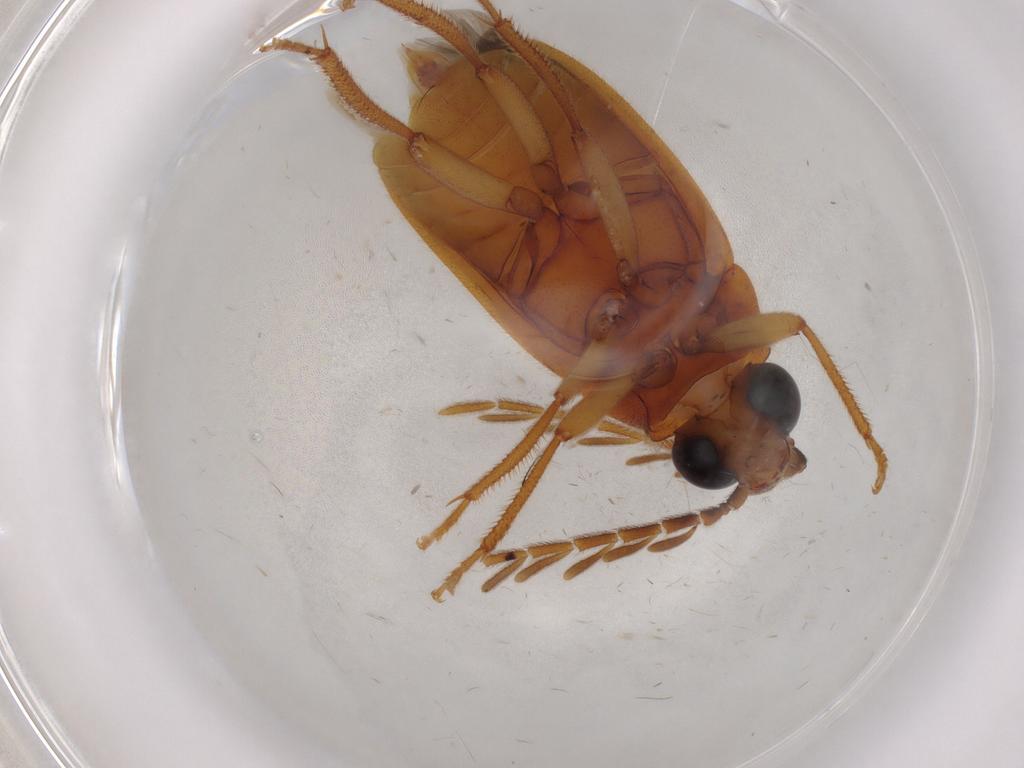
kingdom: Animalia
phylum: Arthropoda
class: Insecta
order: Coleoptera
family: Ptilodactylidae
